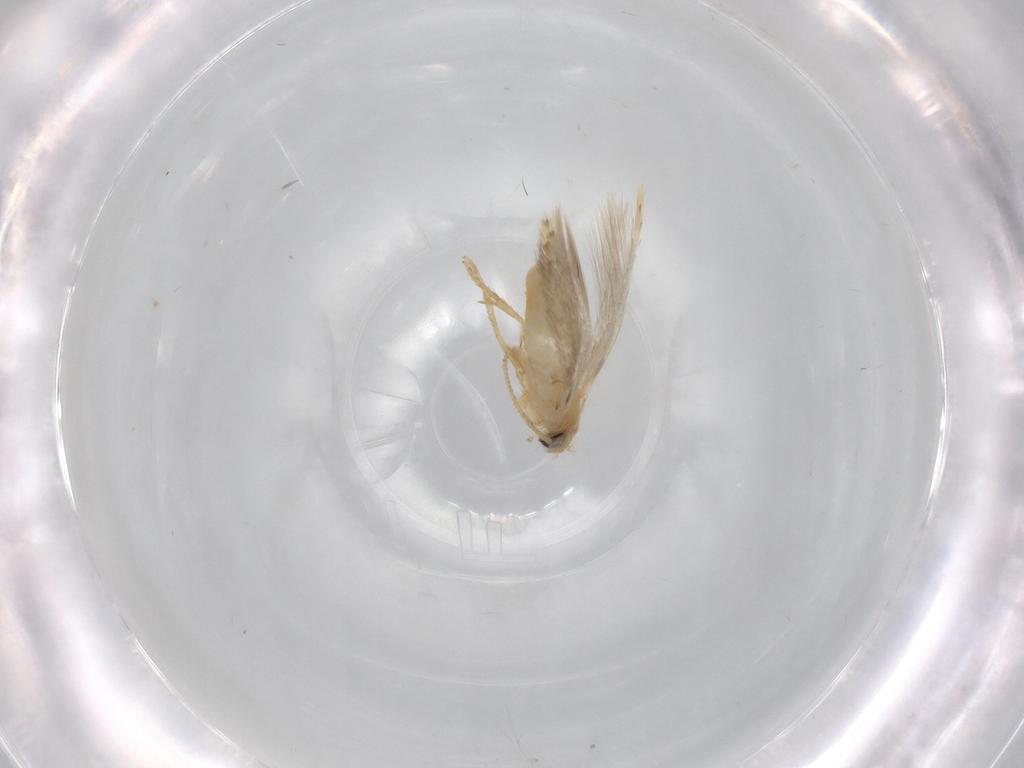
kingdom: Animalia
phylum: Arthropoda
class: Insecta
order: Lepidoptera
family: Nepticulidae
